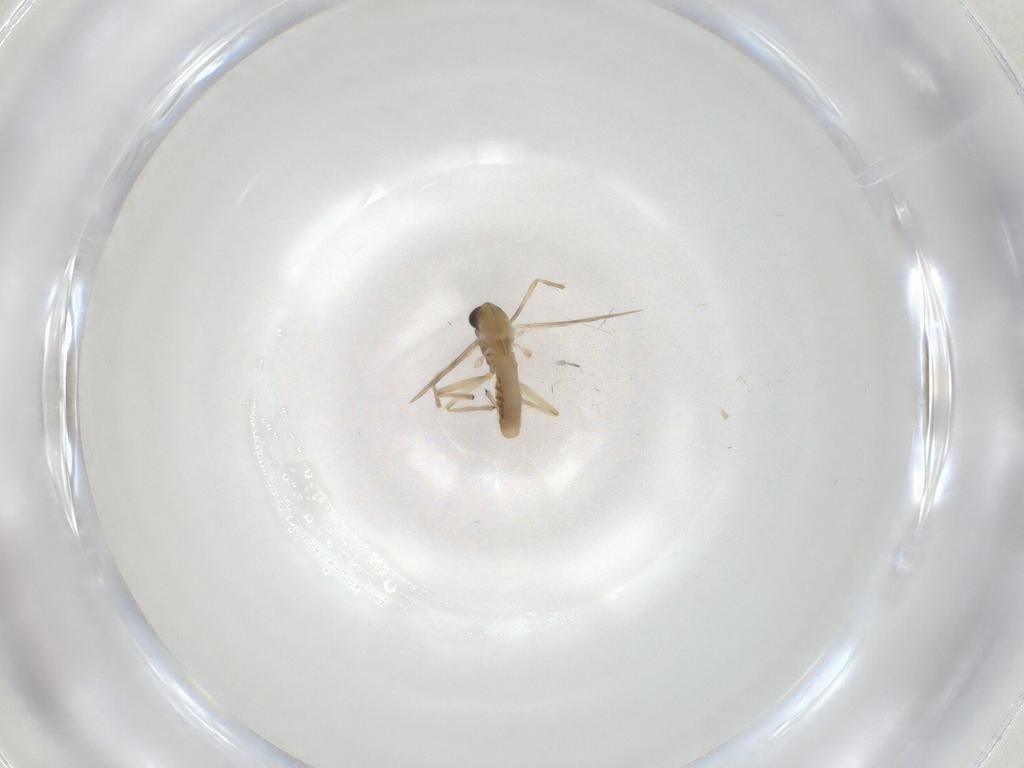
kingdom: Animalia
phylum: Arthropoda
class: Insecta
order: Diptera
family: Chironomidae
